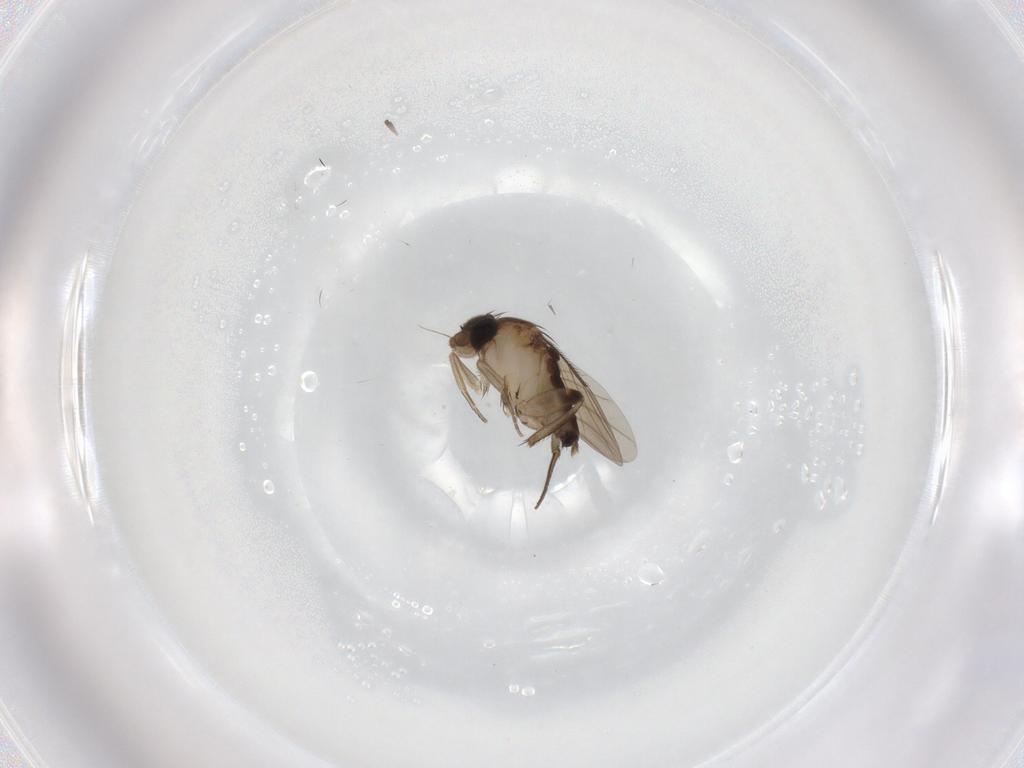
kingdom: Animalia
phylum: Arthropoda
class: Insecta
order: Diptera
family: Phoridae
